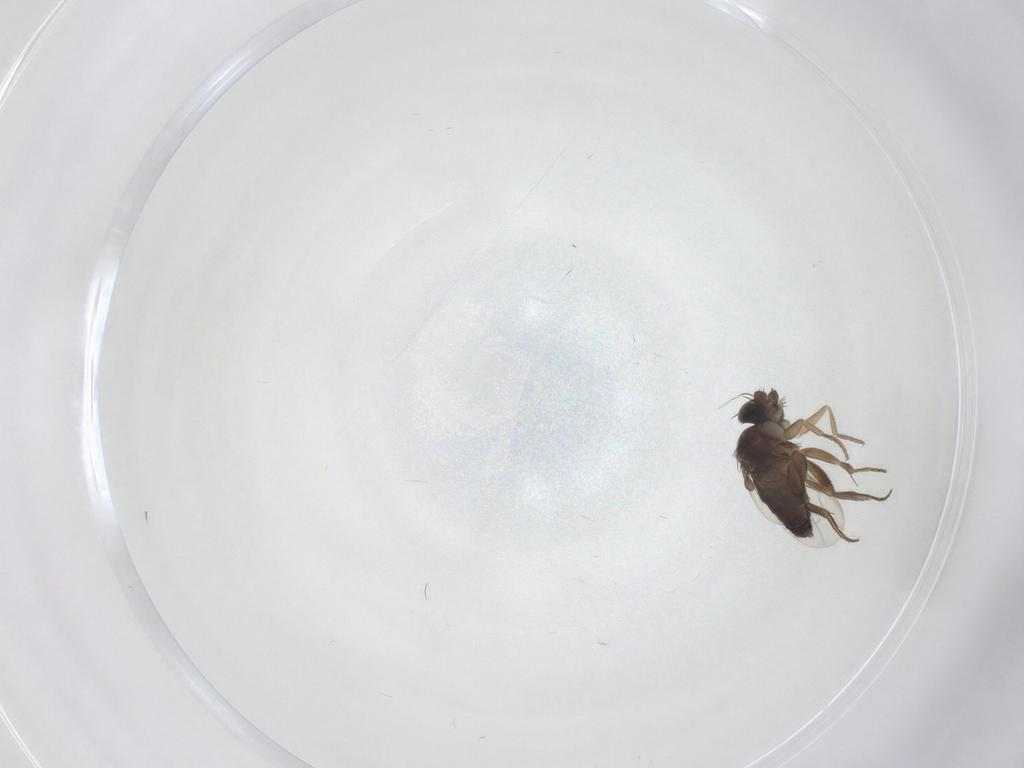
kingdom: Animalia
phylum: Arthropoda
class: Insecta
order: Diptera
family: Phoridae
